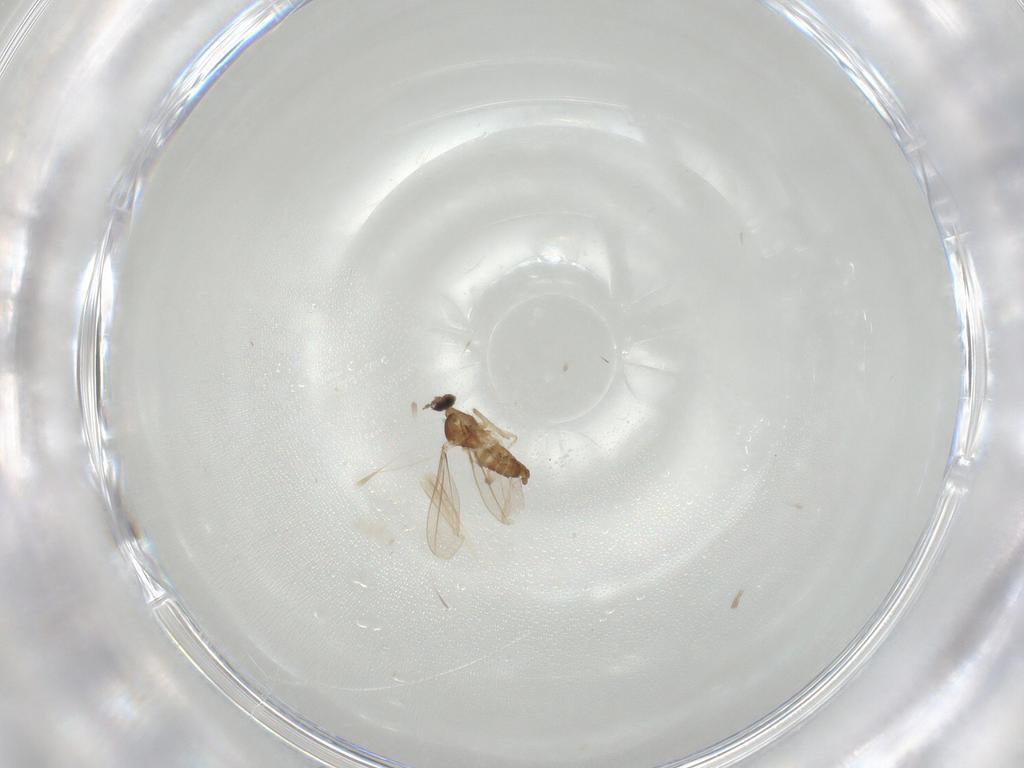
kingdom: Animalia
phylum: Arthropoda
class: Insecta
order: Diptera
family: Cecidomyiidae
